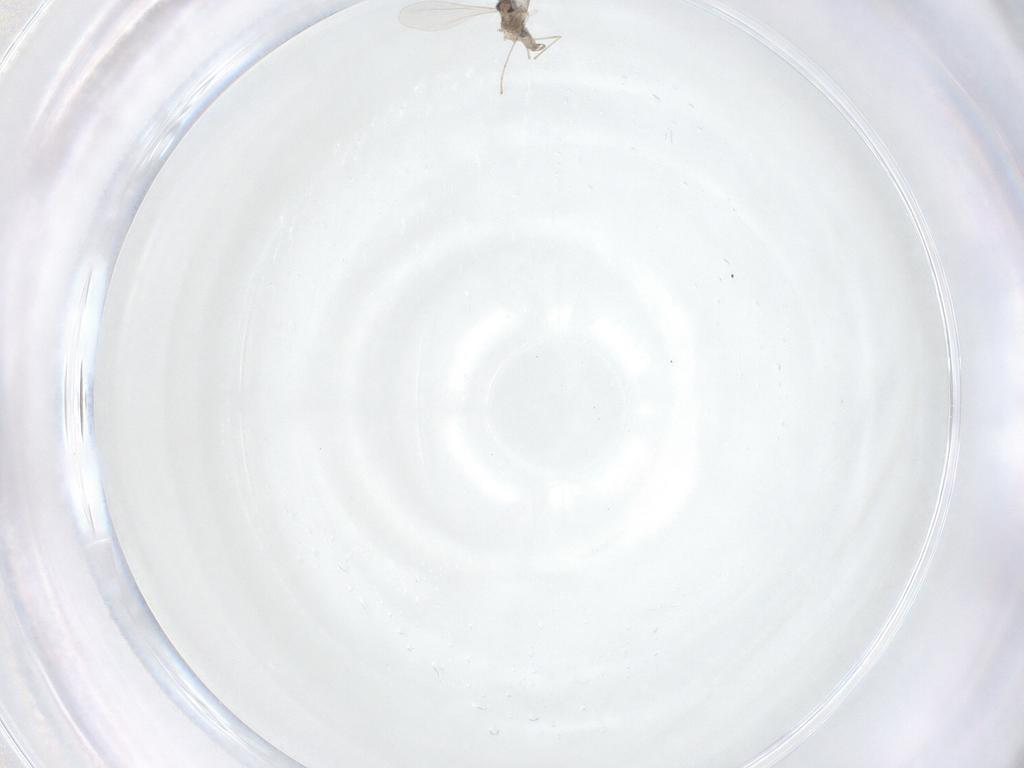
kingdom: Animalia
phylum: Arthropoda
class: Insecta
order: Diptera
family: Cecidomyiidae
